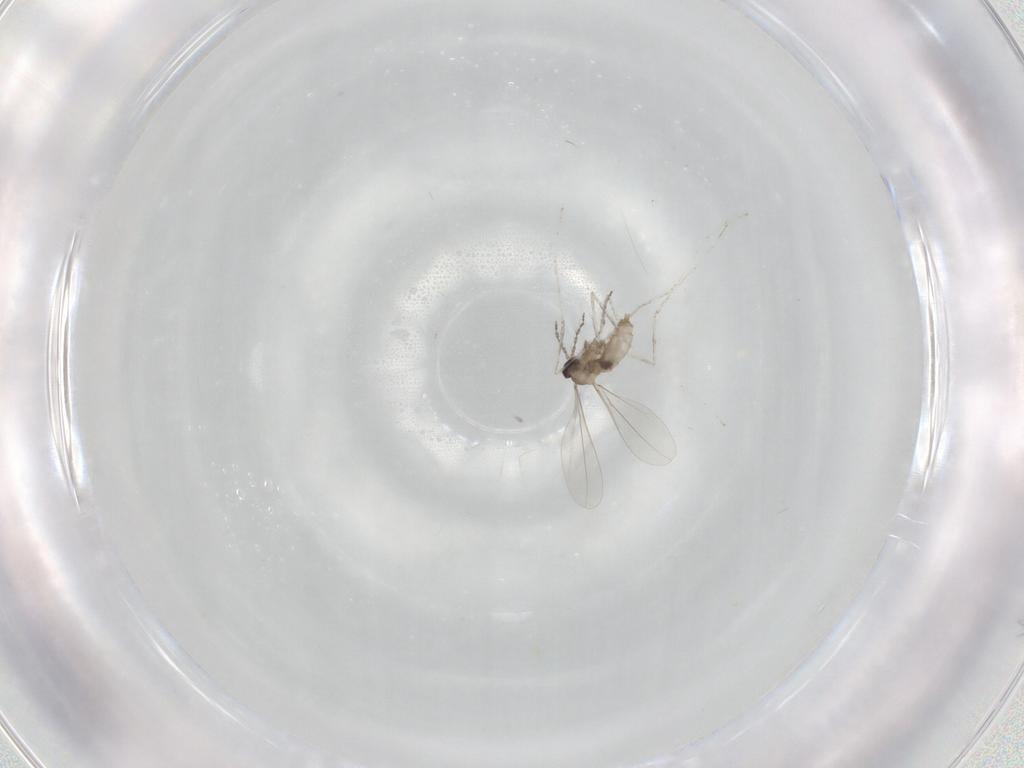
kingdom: Animalia
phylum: Arthropoda
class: Insecta
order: Diptera
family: Cecidomyiidae
